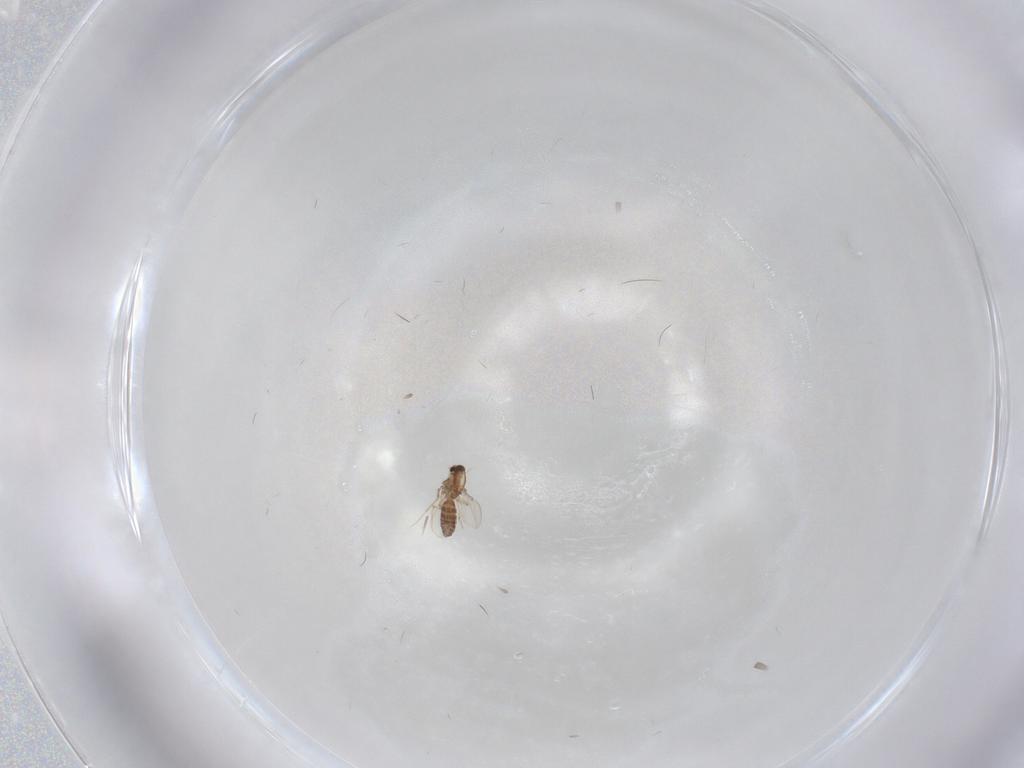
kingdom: Animalia
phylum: Arthropoda
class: Insecta
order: Diptera
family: Chironomidae
